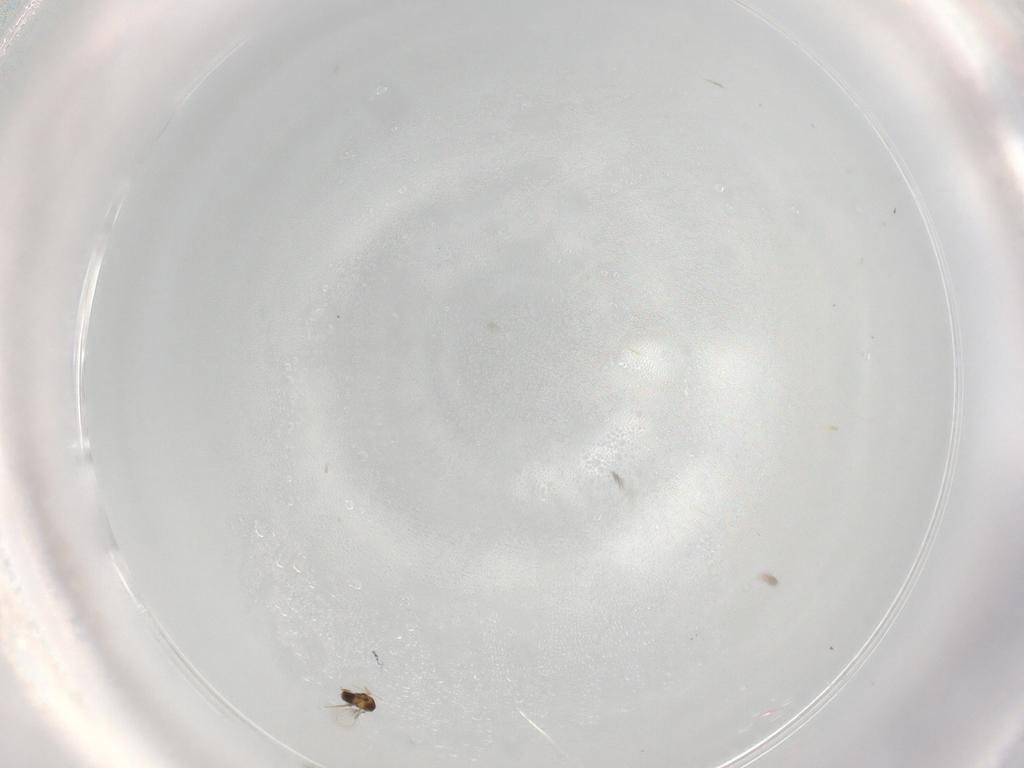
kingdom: Animalia
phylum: Arthropoda
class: Insecta
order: Hymenoptera
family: Aphelinidae
